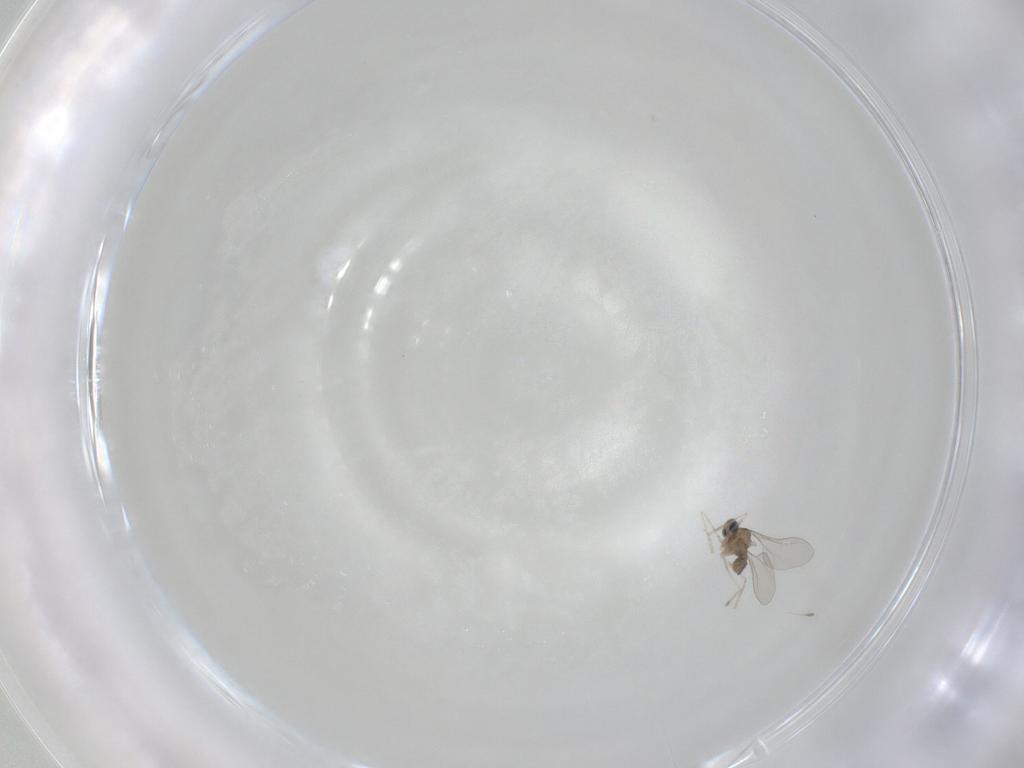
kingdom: Animalia
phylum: Arthropoda
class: Insecta
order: Diptera
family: Cecidomyiidae
